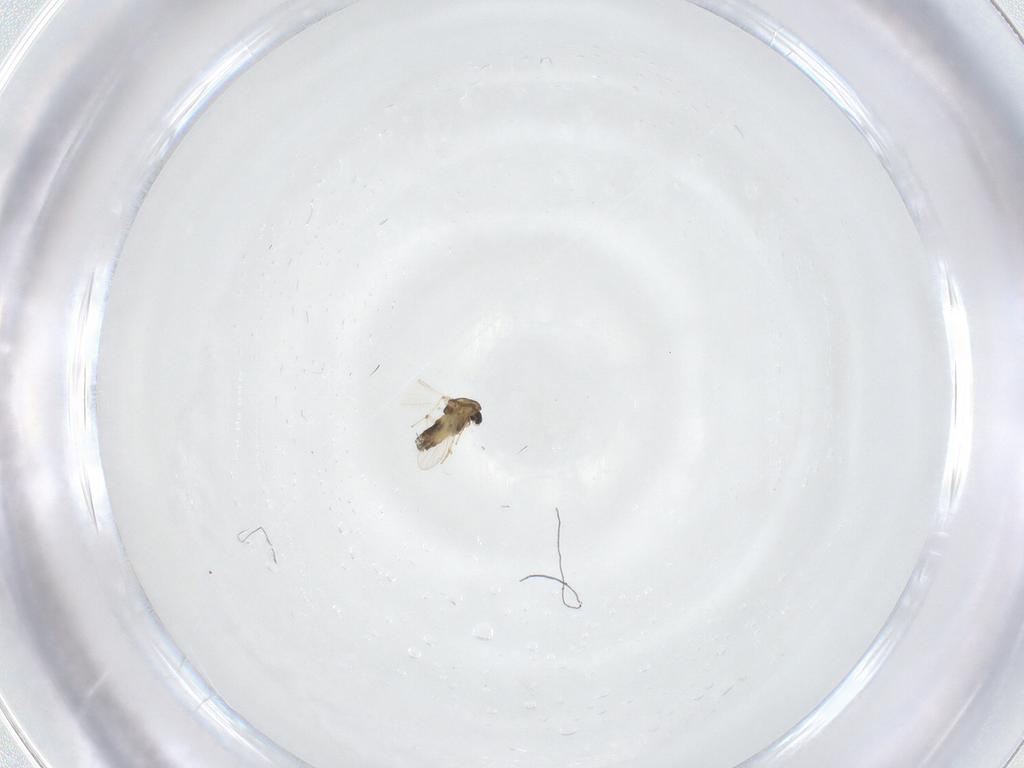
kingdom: Animalia
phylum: Arthropoda
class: Insecta
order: Diptera
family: Chironomidae
